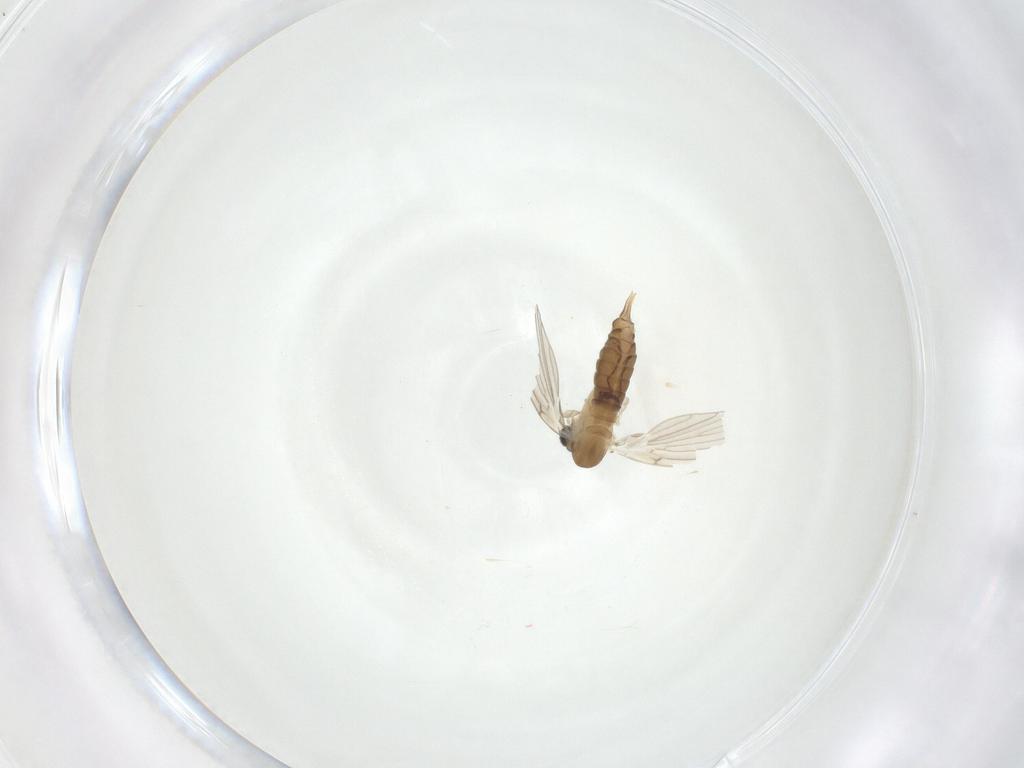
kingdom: Animalia
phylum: Arthropoda
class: Insecta
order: Diptera
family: Psychodidae
